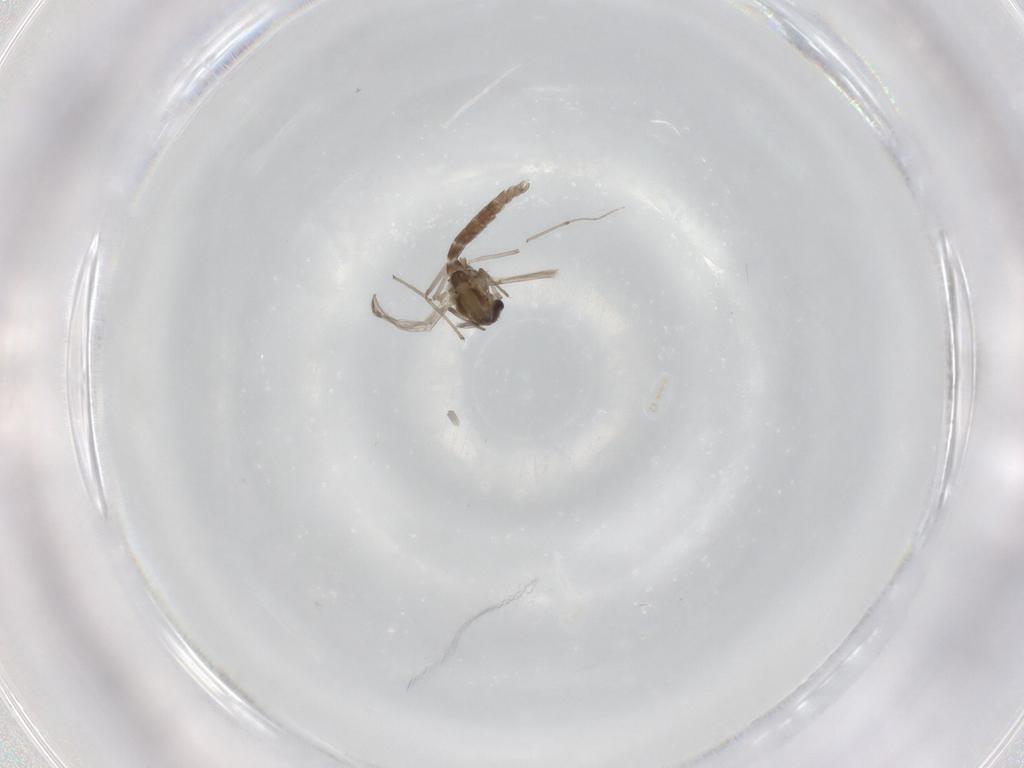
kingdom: Animalia
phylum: Arthropoda
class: Insecta
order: Diptera
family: Chironomidae
